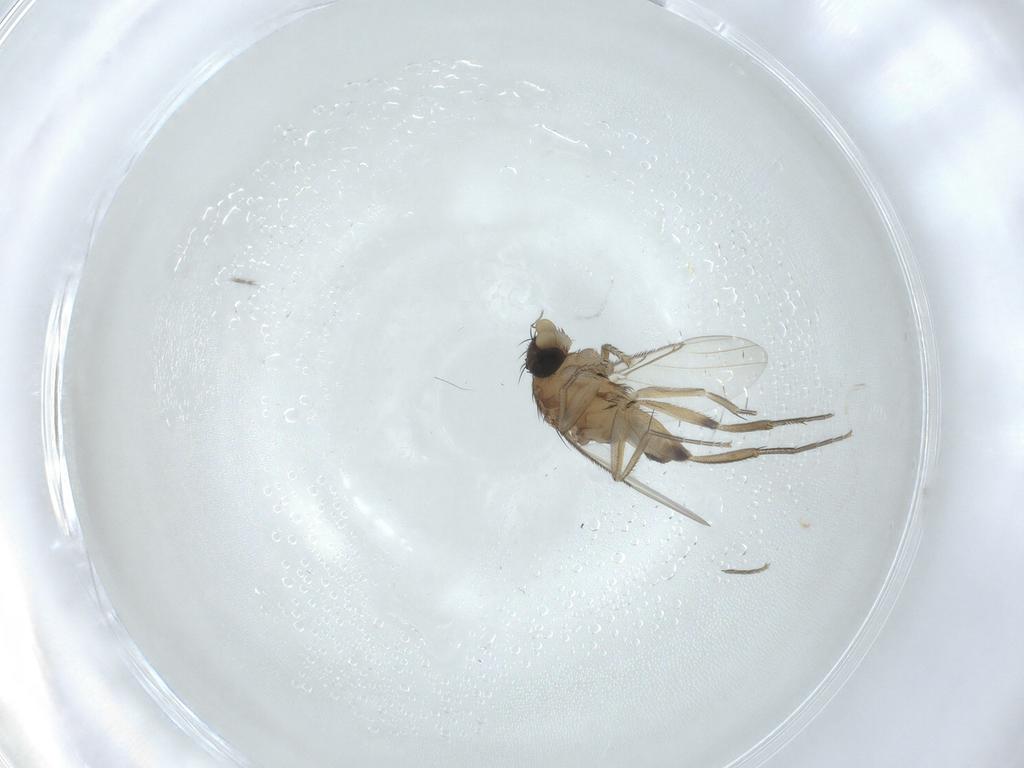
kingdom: Animalia
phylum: Arthropoda
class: Insecta
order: Diptera
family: Phoridae
